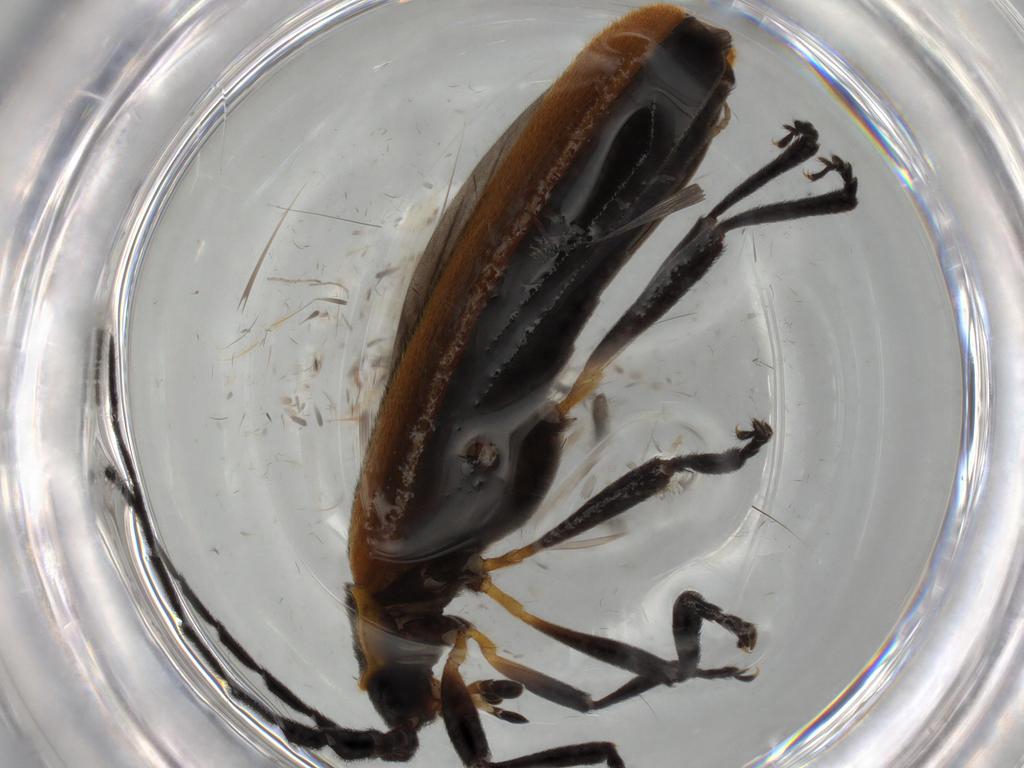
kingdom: Animalia
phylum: Arthropoda
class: Insecta
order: Coleoptera
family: Lycidae
